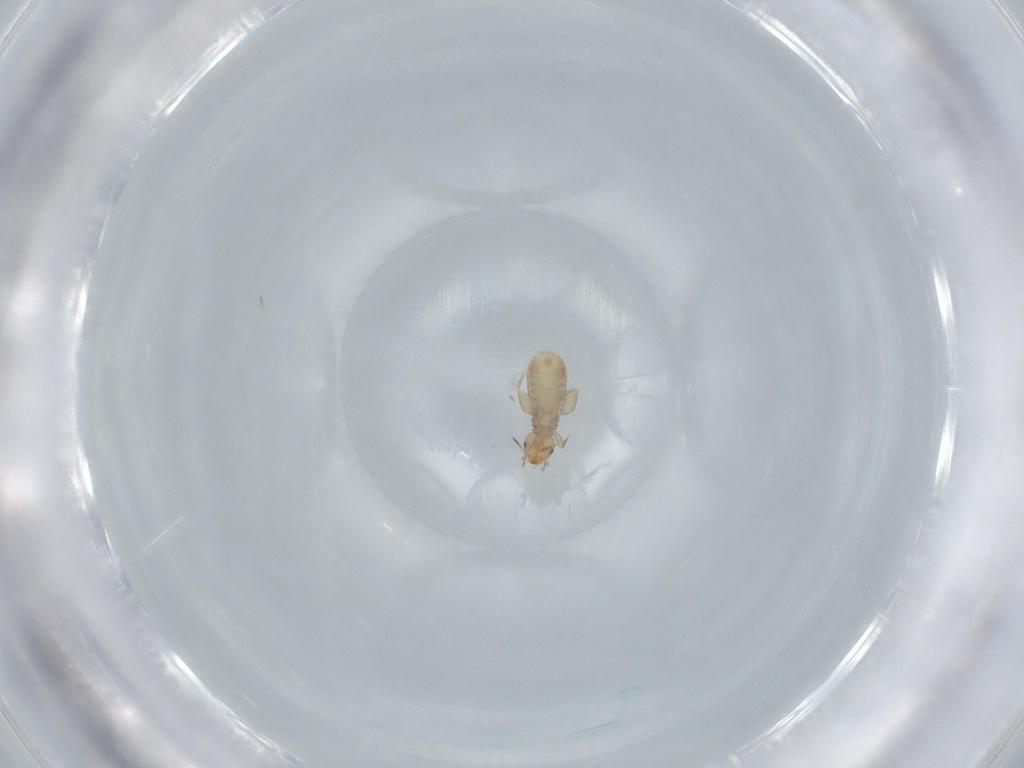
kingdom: Animalia
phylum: Arthropoda
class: Insecta
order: Psocodea
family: Liposcelididae
